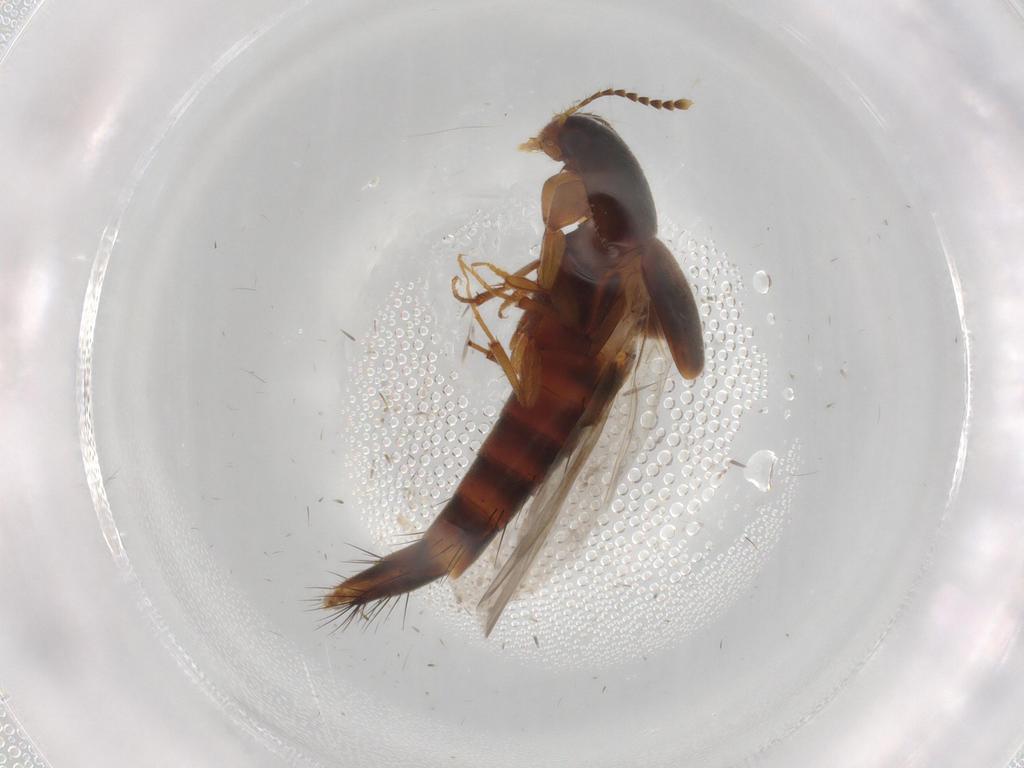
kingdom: Animalia
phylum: Arthropoda
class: Insecta
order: Coleoptera
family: Staphylinidae
